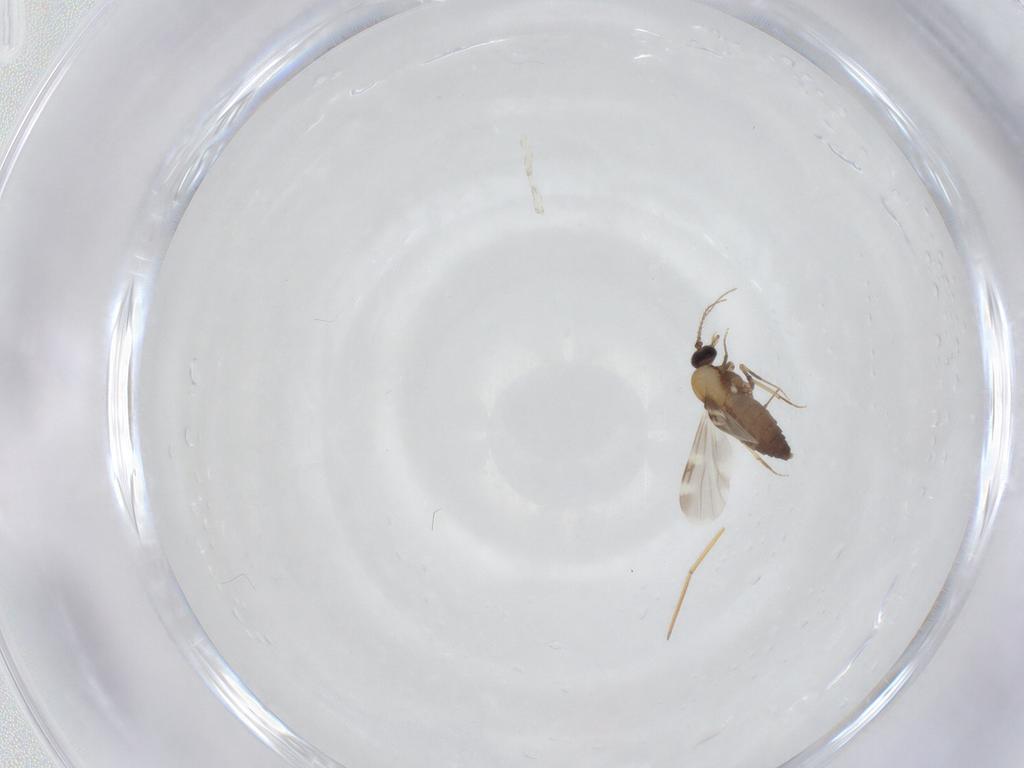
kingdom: Animalia
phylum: Arthropoda
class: Insecta
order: Diptera
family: Ceratopogonidae
